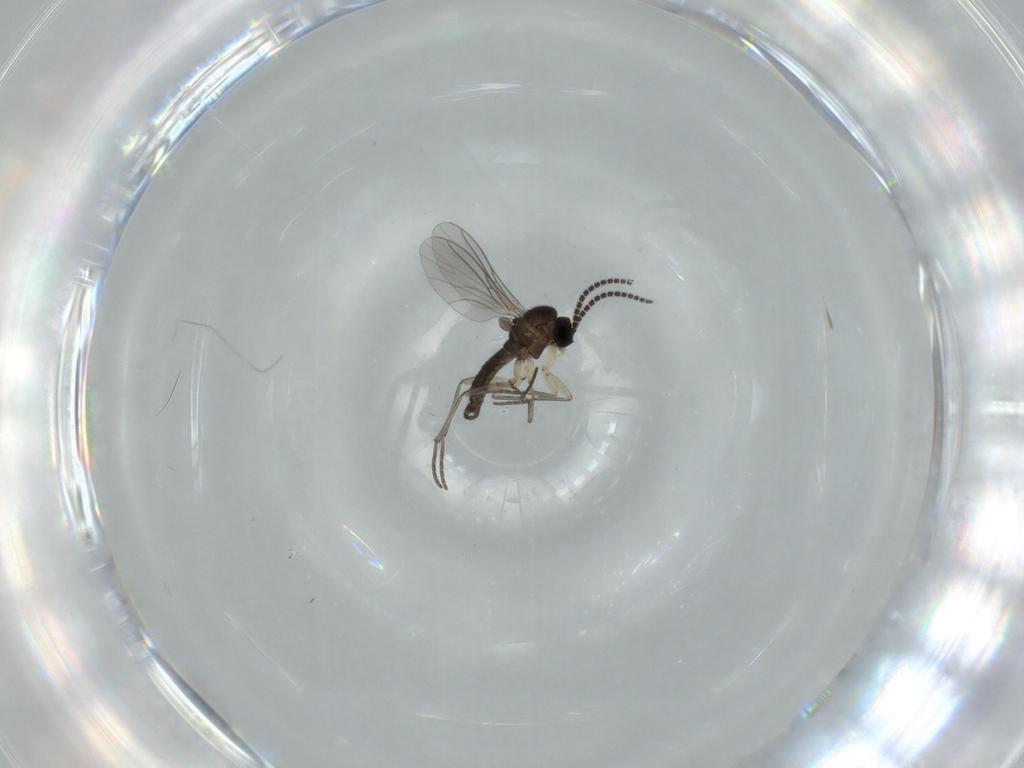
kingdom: Animalia
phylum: Arthropoda
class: Insecta
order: Diptera
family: Sciaridae
